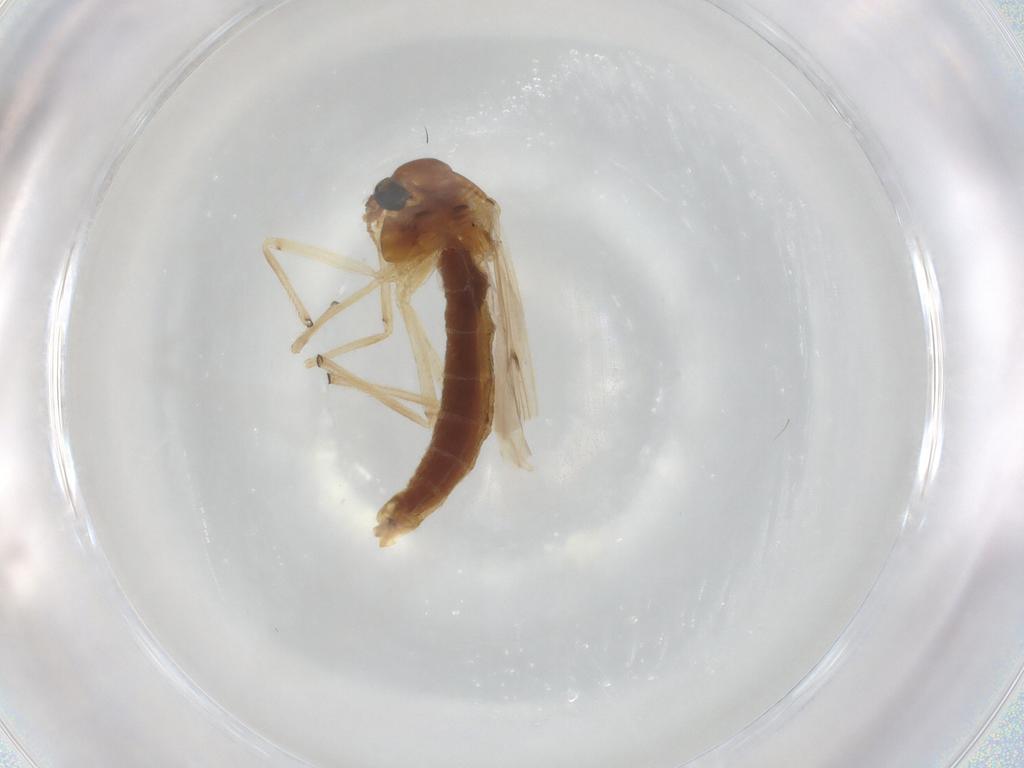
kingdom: Animalia
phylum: Arthropoda
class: Insecta
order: Diptera
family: Chironomidae
